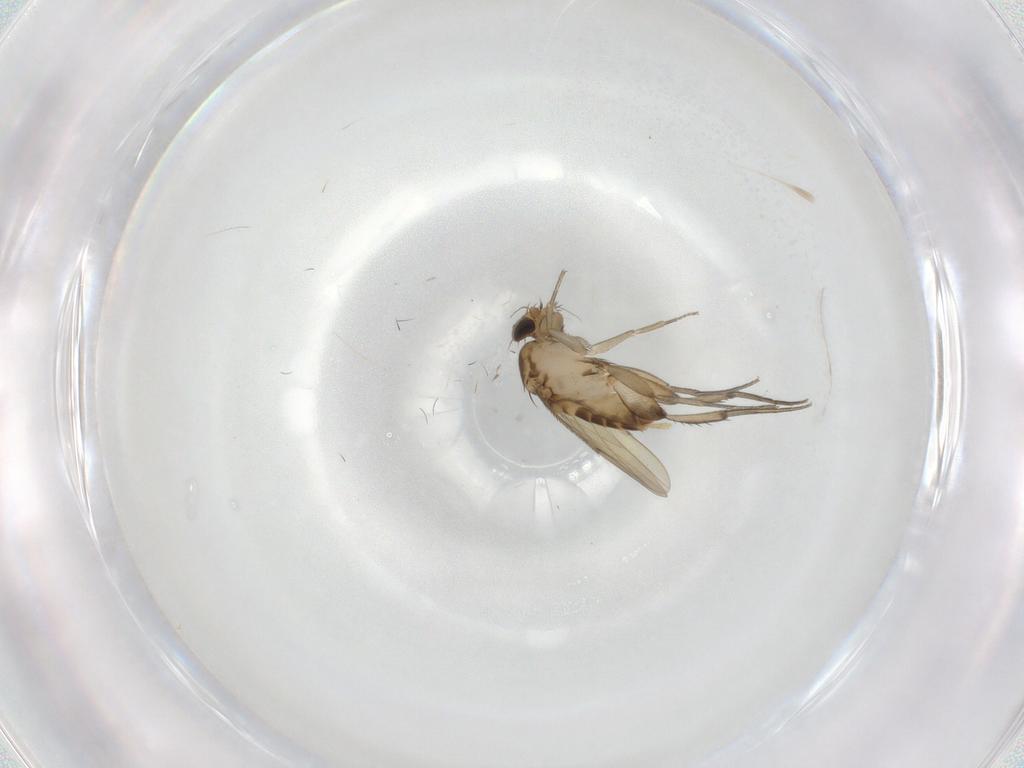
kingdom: Animalia
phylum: Arthropoda
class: Insecta
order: Diptera
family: Phoridae
